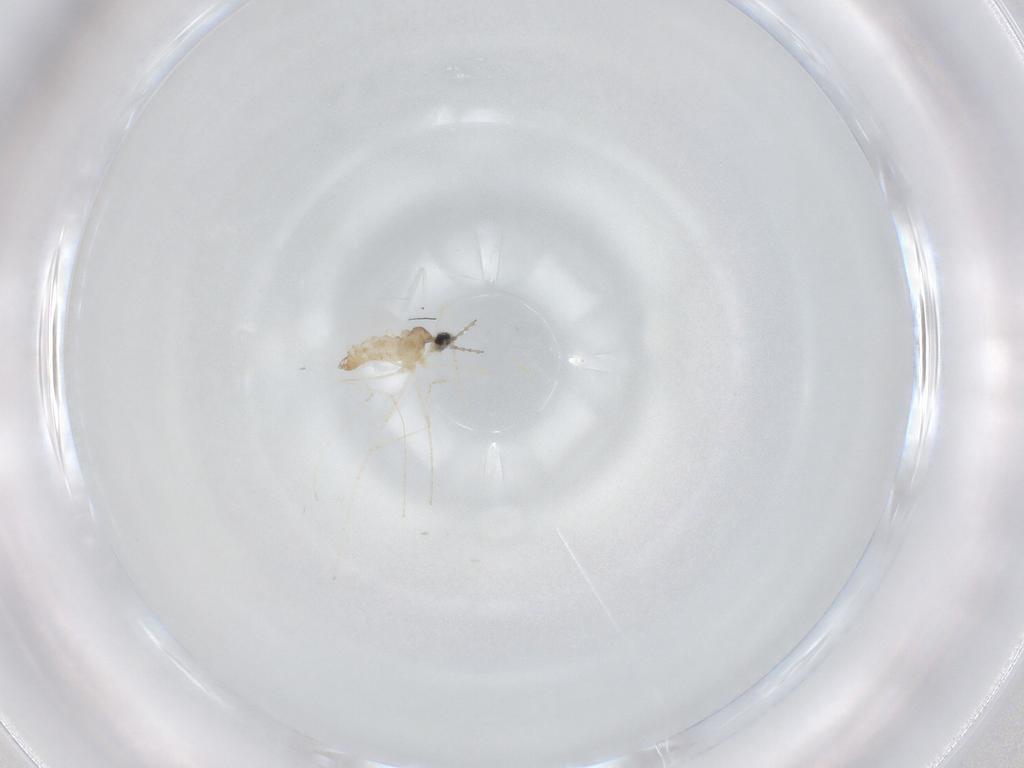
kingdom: Animalia
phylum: Arthropoda
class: Insecta
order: Diptera
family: Cecidomyiidae
